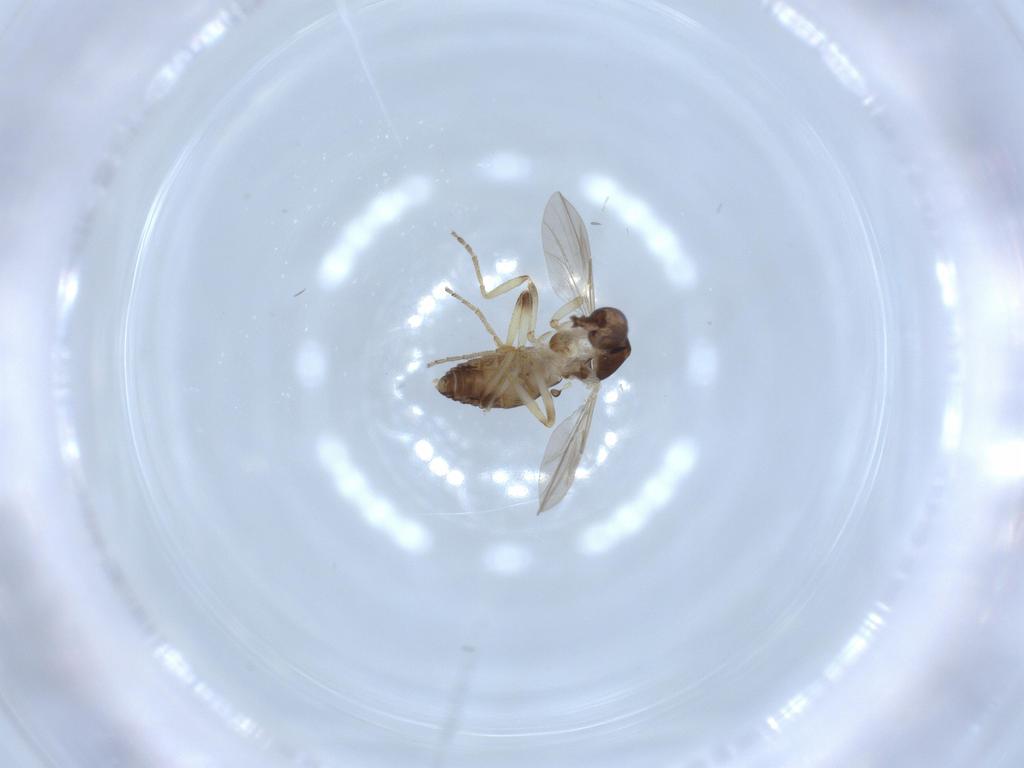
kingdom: Animalia
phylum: Arthropoda
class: Insecta
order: Diptera
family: Ceratopogonidae
